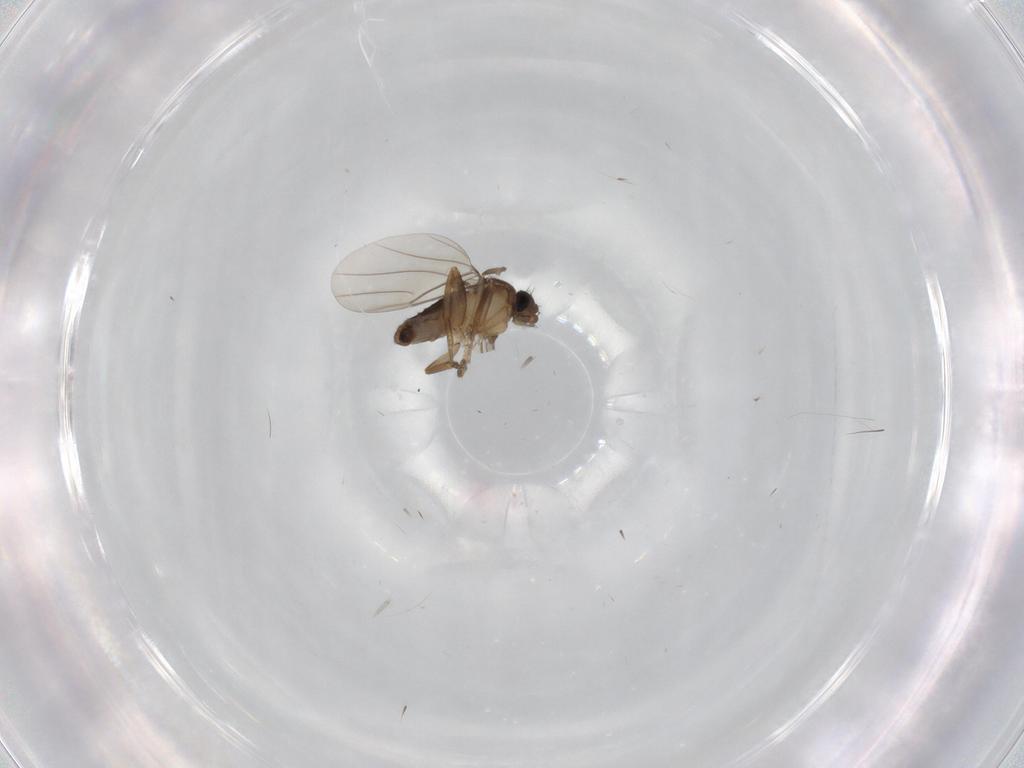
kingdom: Animalia
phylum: Arthropoda
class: Insecta
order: Diptera
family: Phoridae
